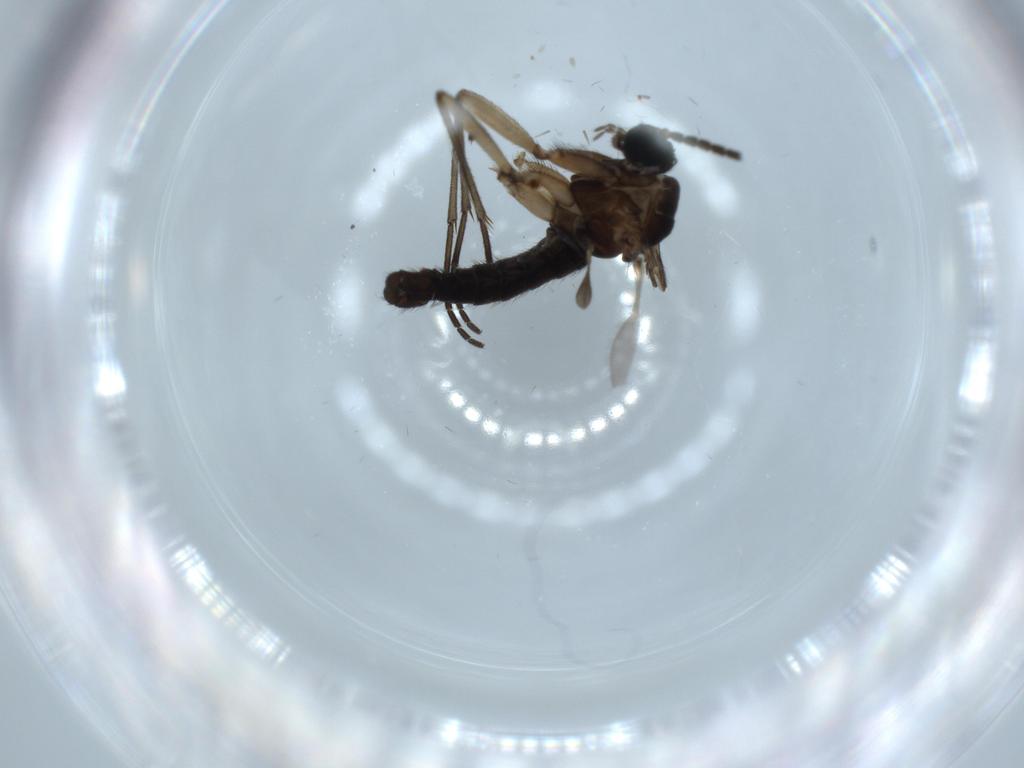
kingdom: Animalia
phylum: Arthropoda
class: Insecta
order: Diptera
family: Sciaridae
